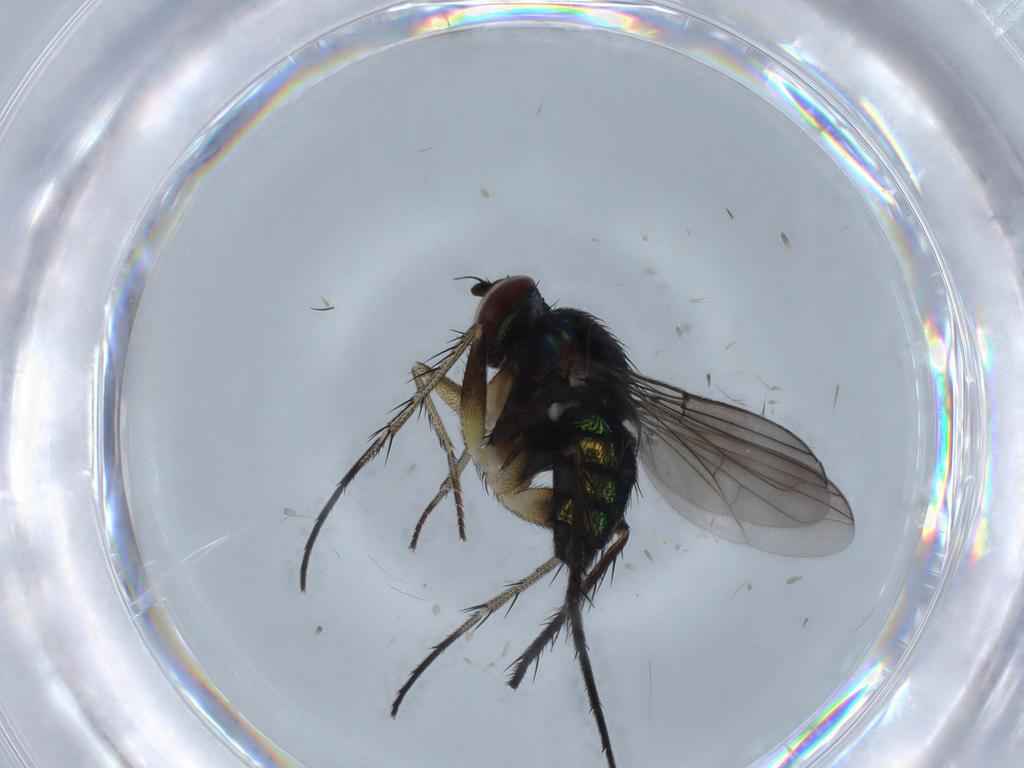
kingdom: Animalia
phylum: Arthropoda
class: Insecta
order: Diptera
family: Dolichopodidae
